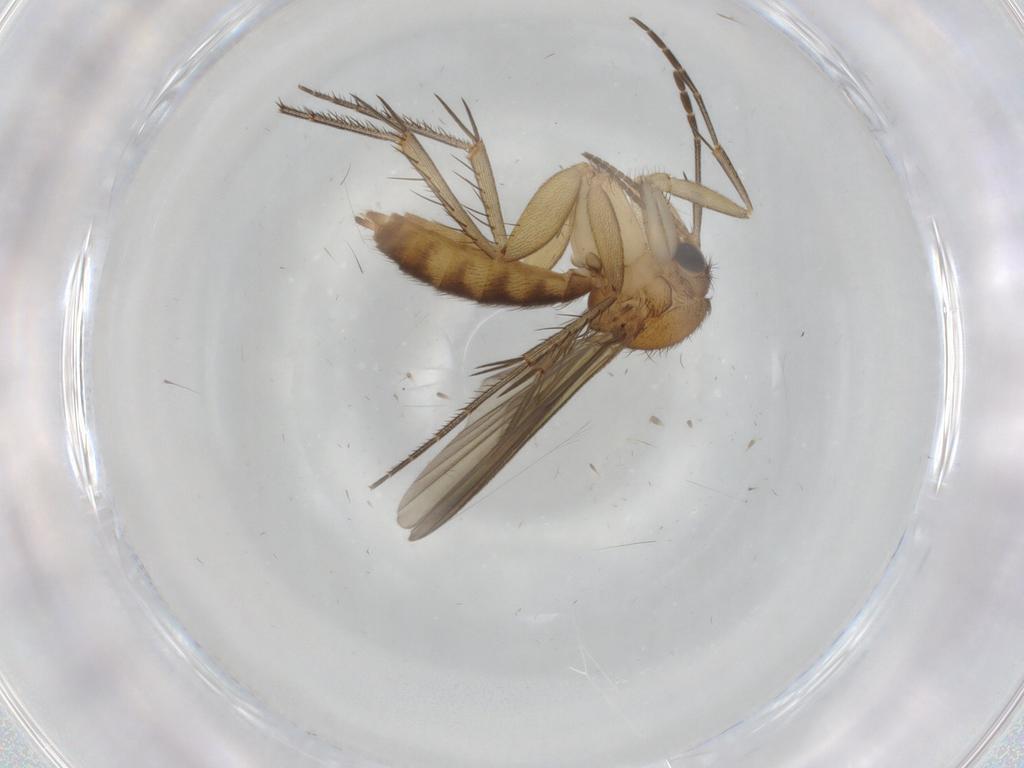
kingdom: Animalia
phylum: Arthropoda
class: Insecta
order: Diptera
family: Mycetophilidae
